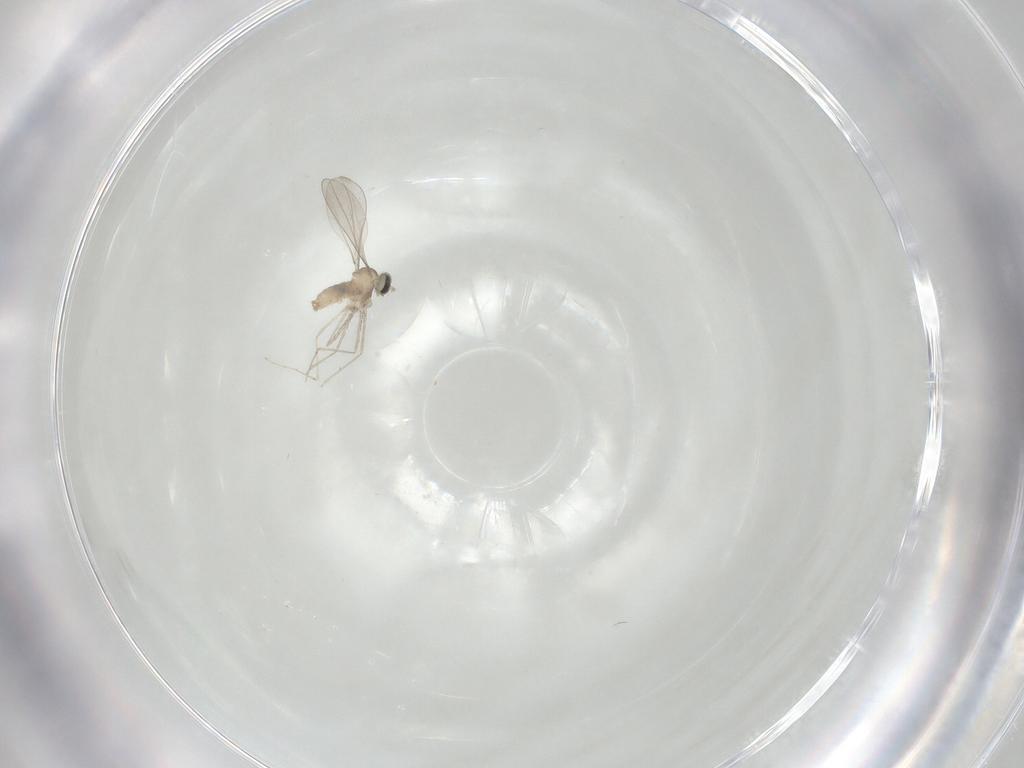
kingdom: Animalia
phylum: Arthropoda
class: Insecta
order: Diptera
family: Cecidomyiidae
